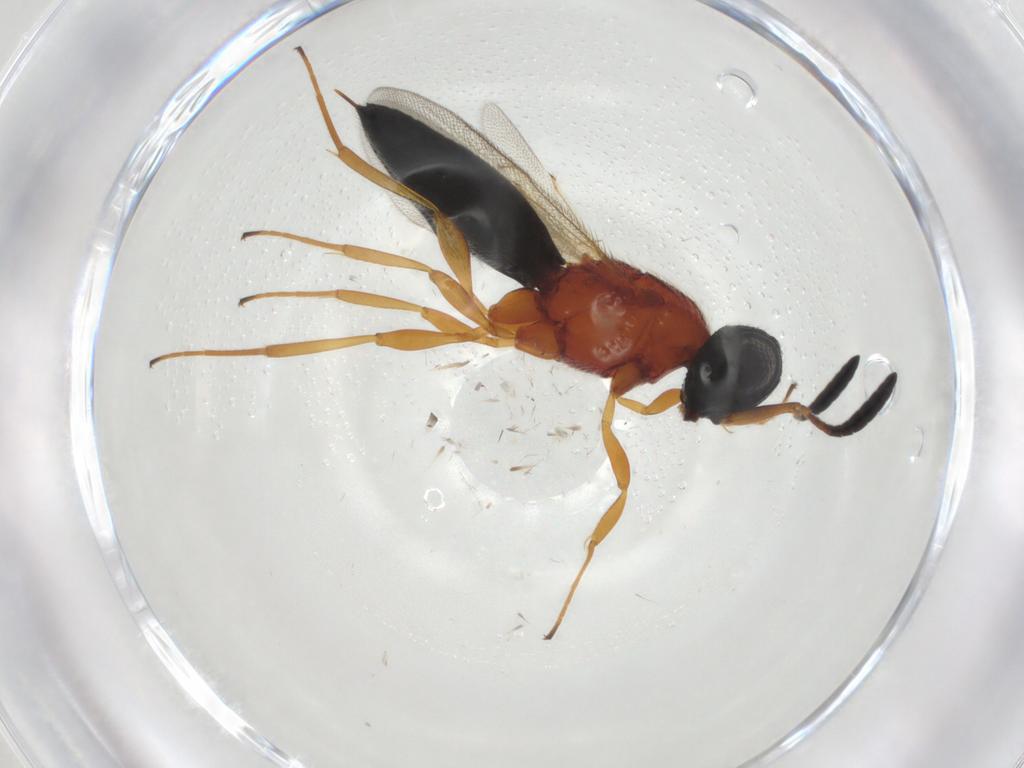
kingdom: Animalia
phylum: Arthropoda
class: Insecta
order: Hymenoptera
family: Scelionidae
